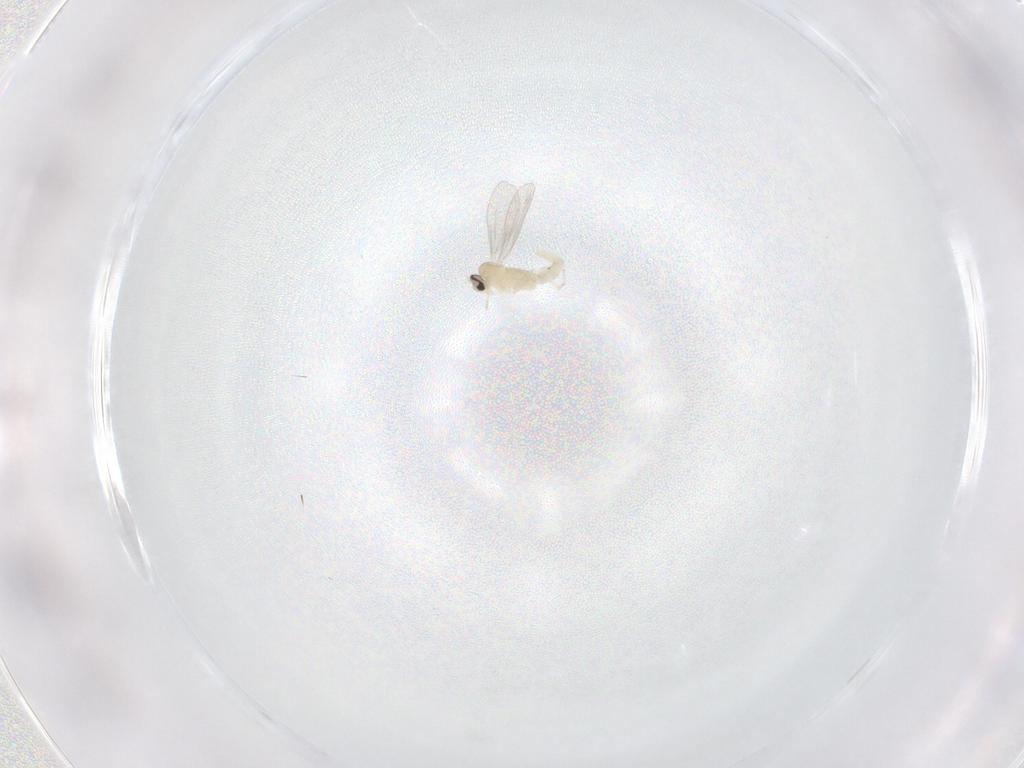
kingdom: Animalia
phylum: Arthropoda
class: Insecta
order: Diptera
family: Cecidomyiidae
